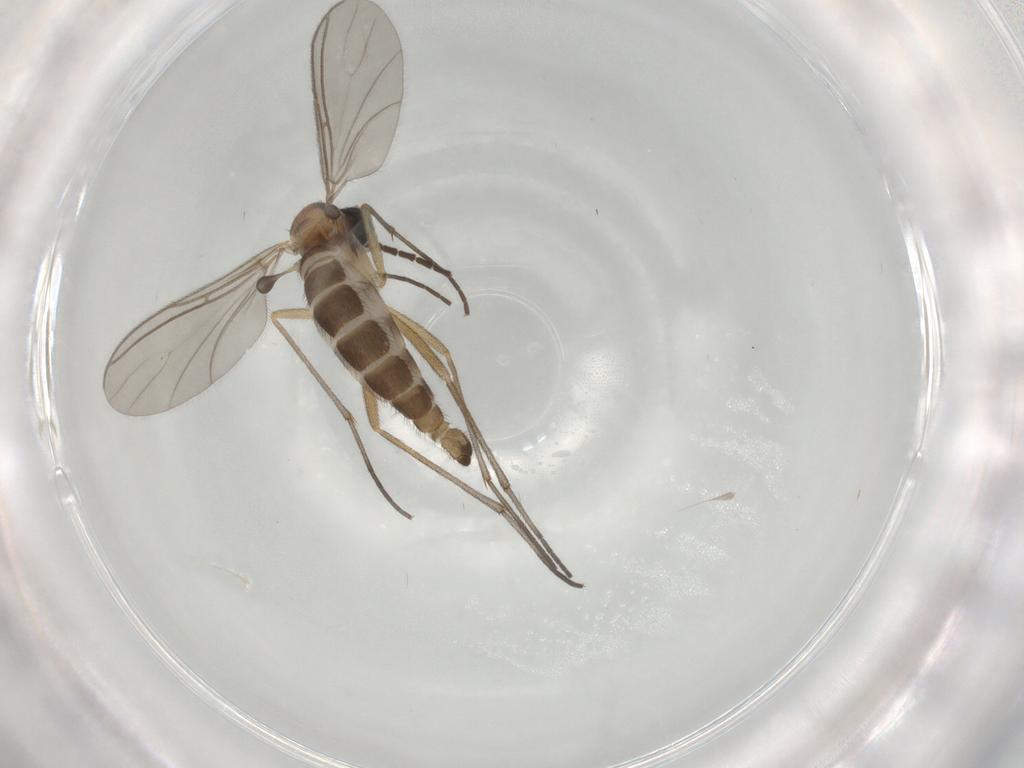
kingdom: Animalia
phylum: Arthropoda
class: Insecta
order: Diptera
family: Sciaridae
